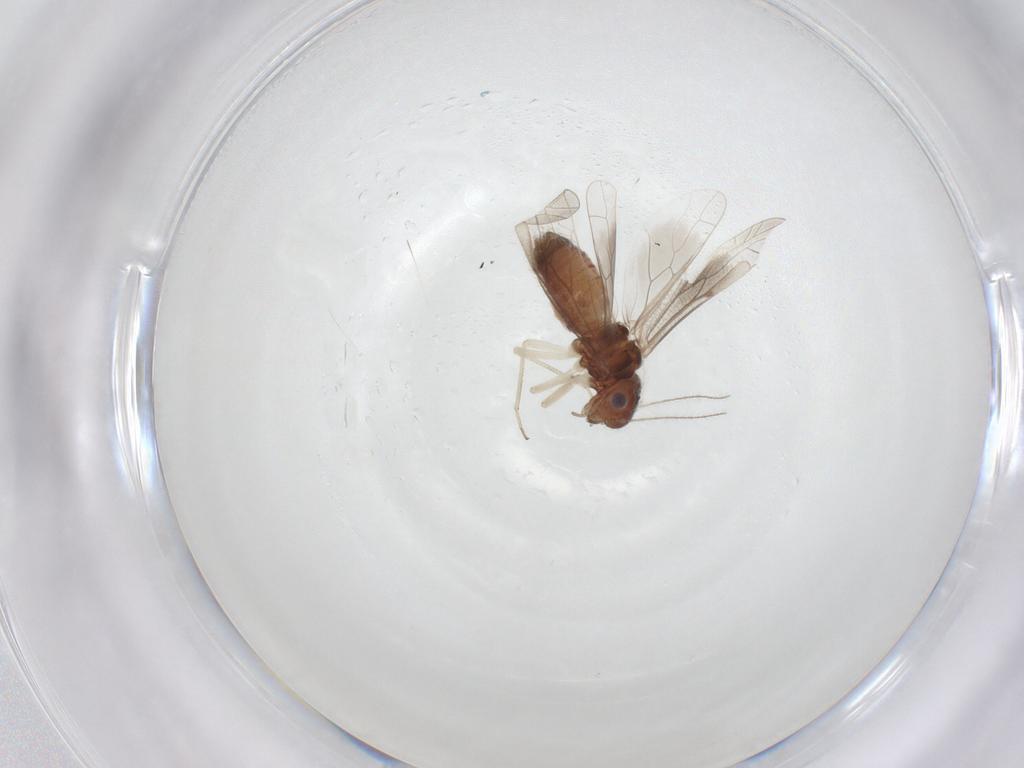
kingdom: Animalia
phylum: Arthropoda
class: Insecta
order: Psocodea
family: Caeciliusidae
